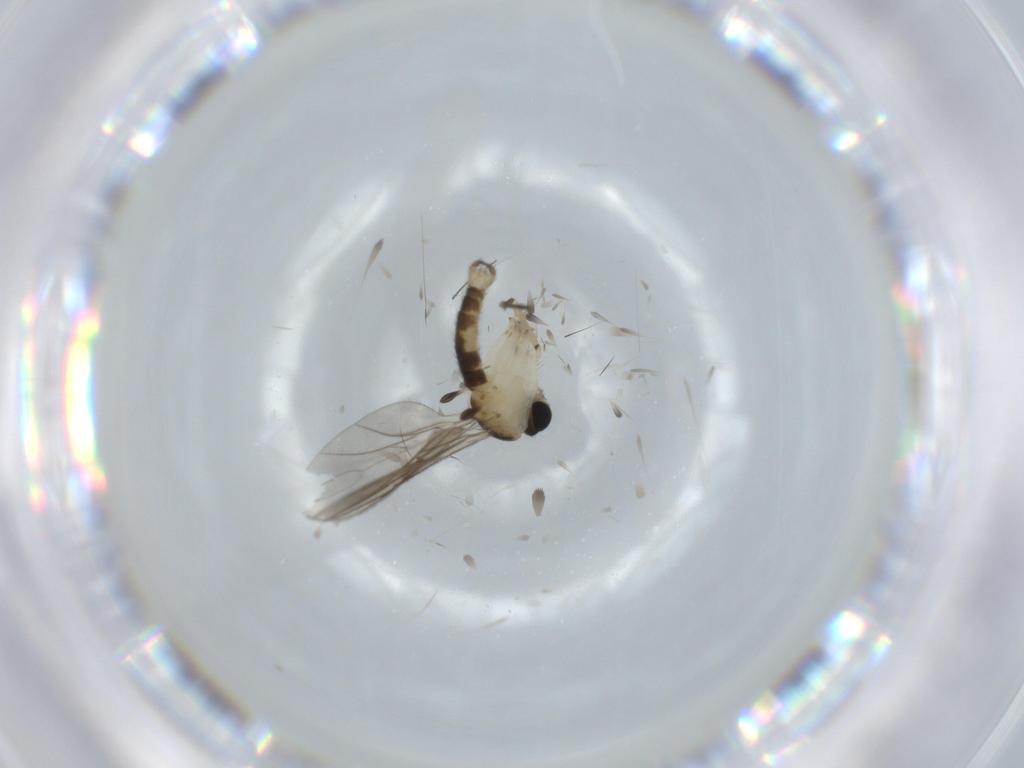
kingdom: Animalia
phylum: Arthropoda
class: Insecta
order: Diptera
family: Sciaridae
